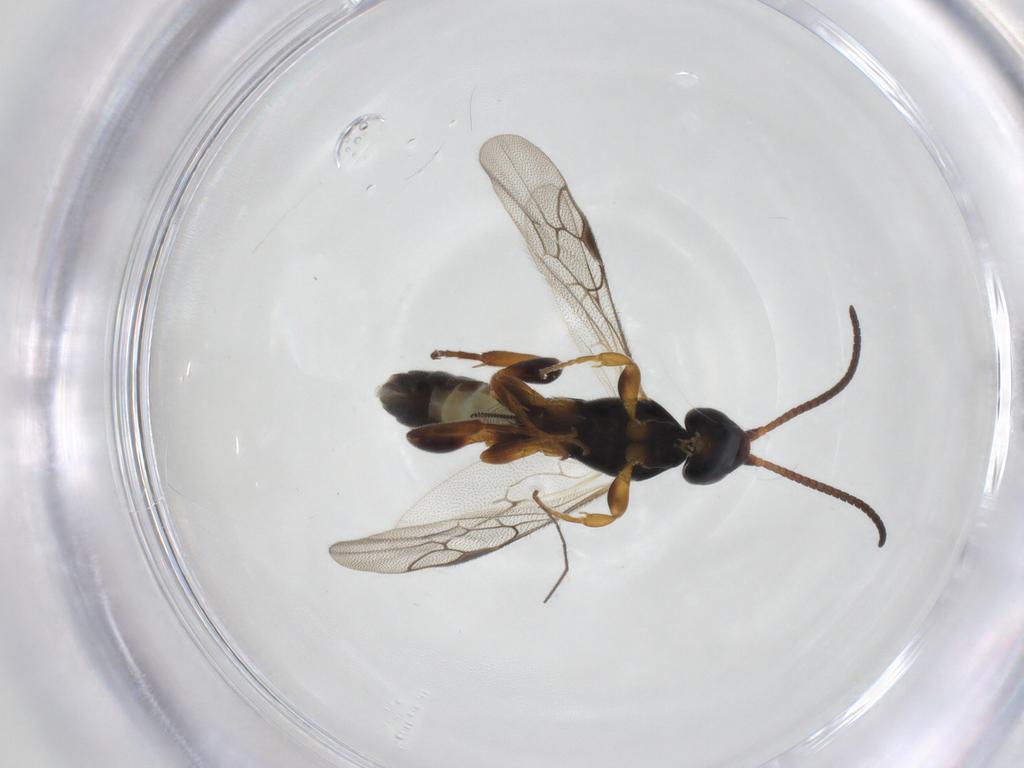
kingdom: Animalia
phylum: Arthropoda
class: Insecta
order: Hymenoptera
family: Ichneumonidae
